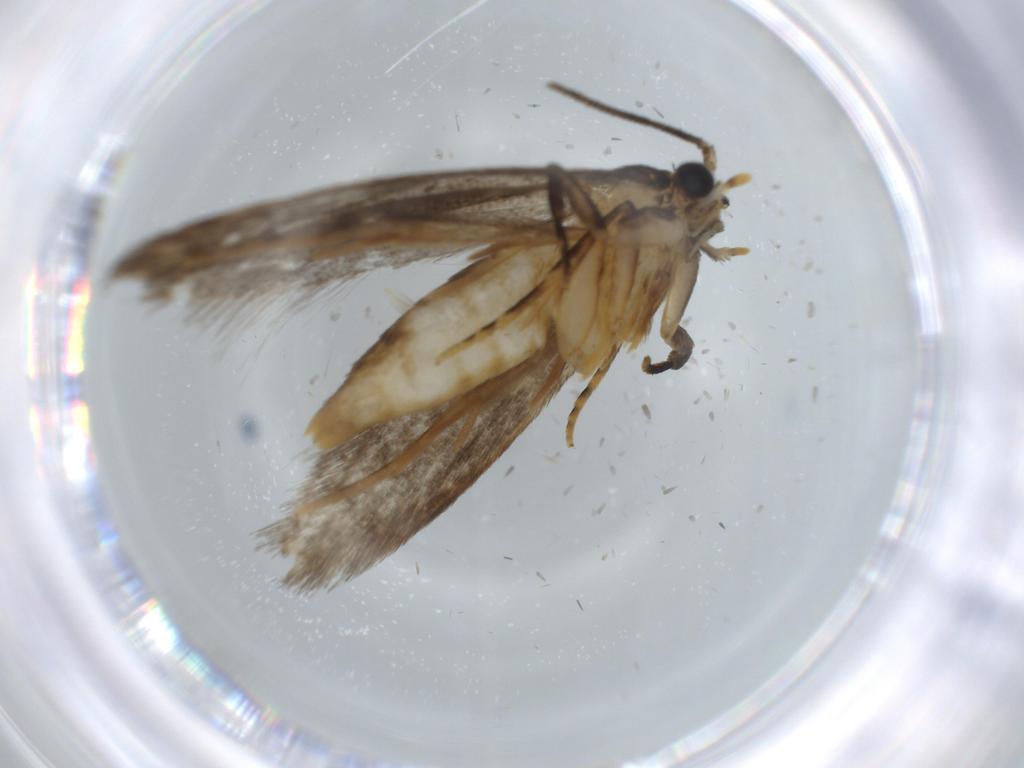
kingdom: Animalia
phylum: Arthropoda
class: Insecta
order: Lepidoptera
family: Tineidae
